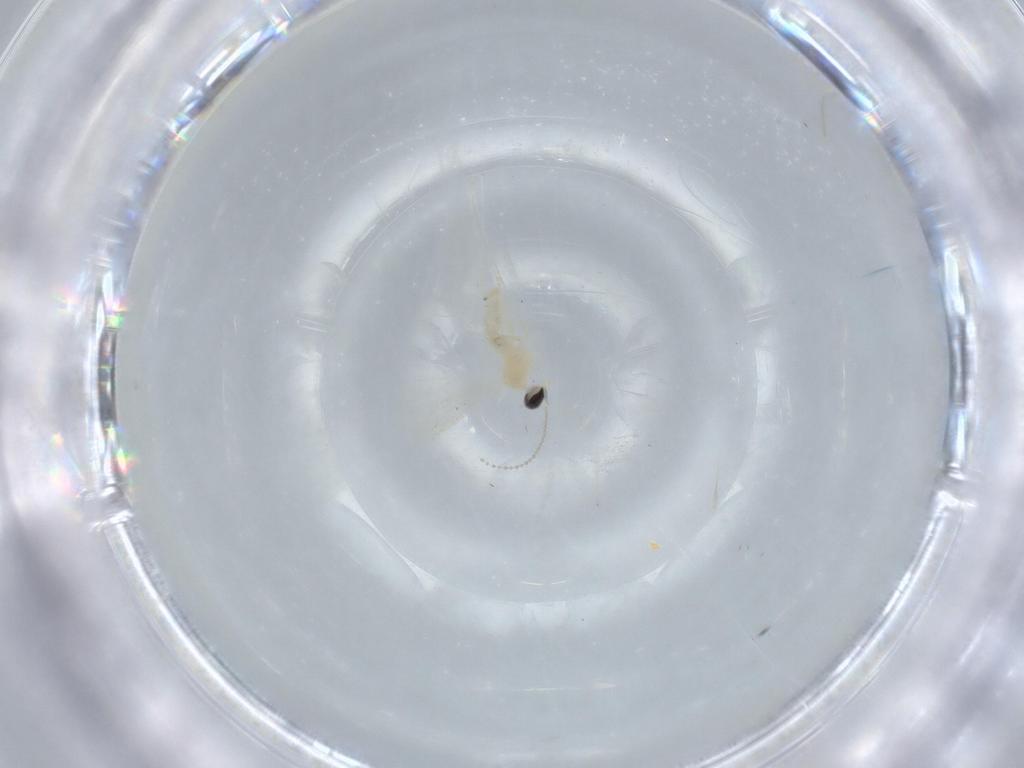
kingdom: Animalia
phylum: Arthropoda
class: Insecta
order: Diptera
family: Cecidomyiidae
